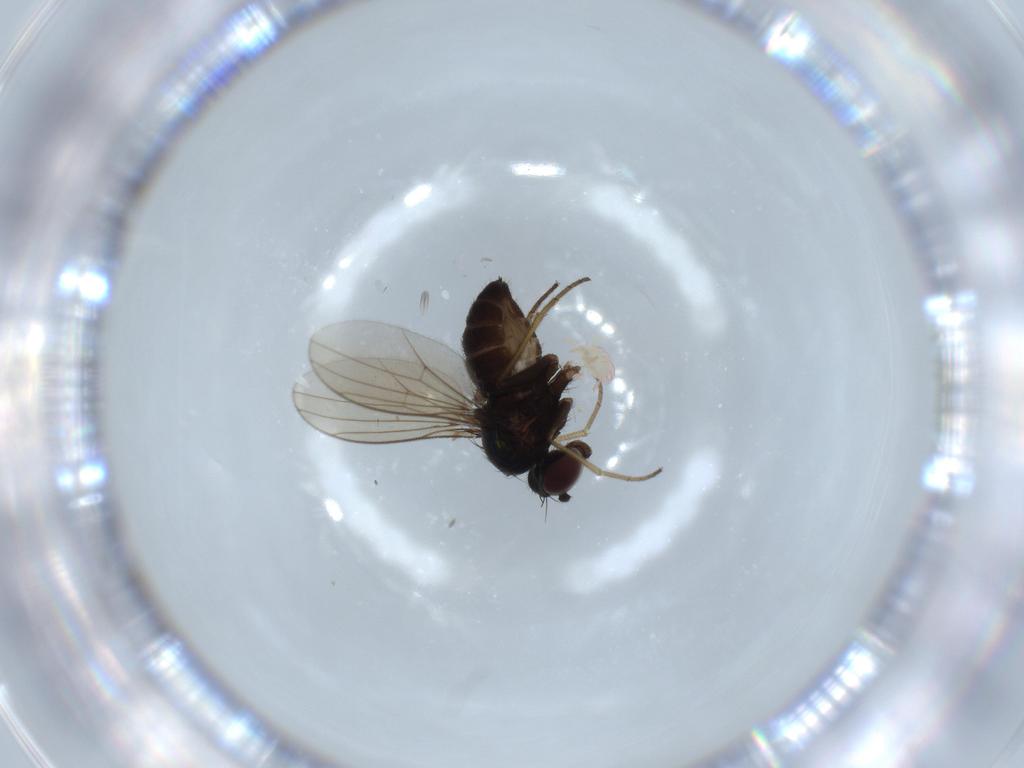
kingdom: Animalia
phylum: Arthropoda
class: Insecta
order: Diptera
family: Dolichopodidae
